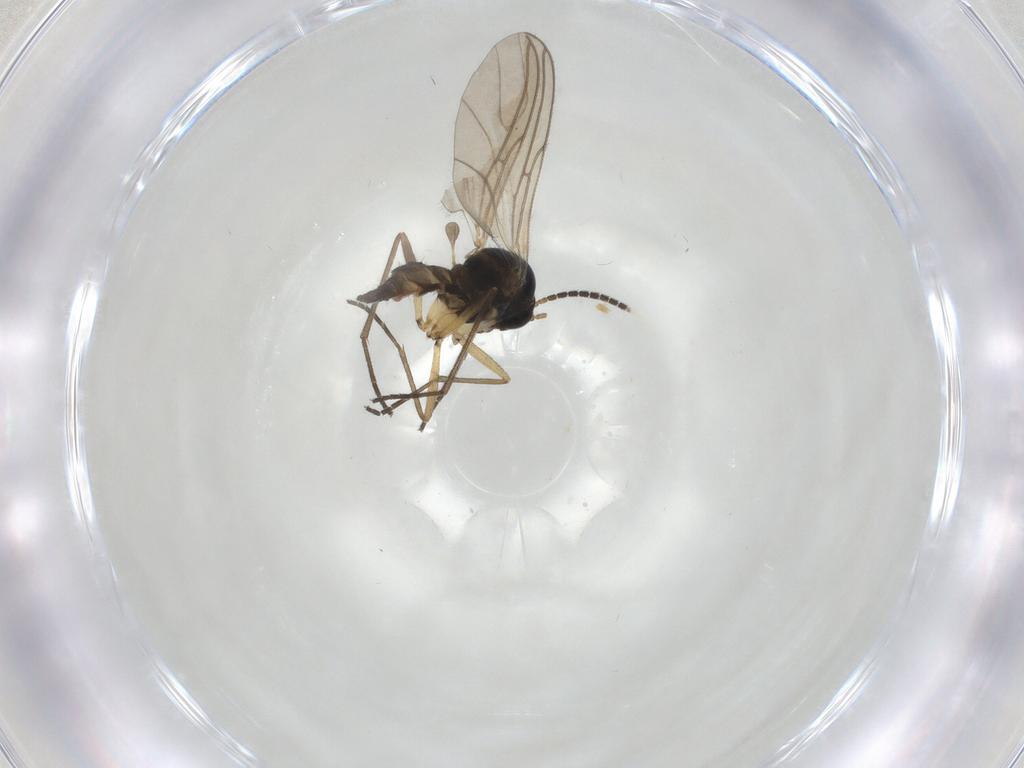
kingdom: Animalia
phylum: Arthropoda
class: Insecta
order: Diptera
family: Sciaridae
